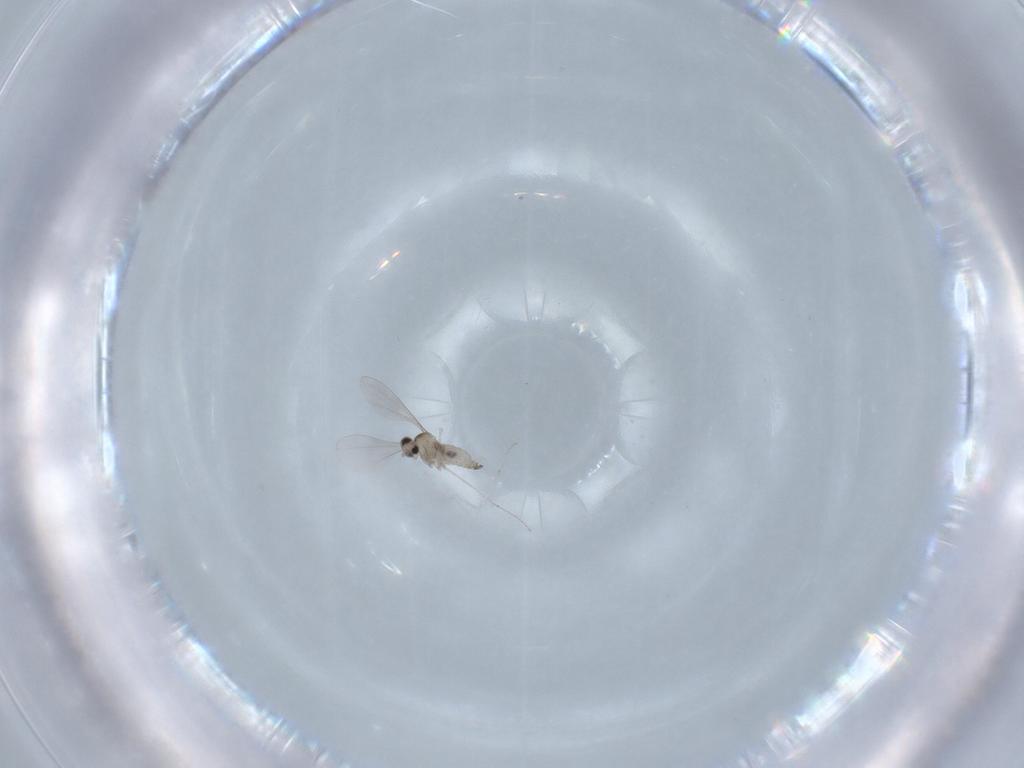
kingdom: Animalia
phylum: Arthropoda
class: Insecta
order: Diptera
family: Cecidomyiidae
